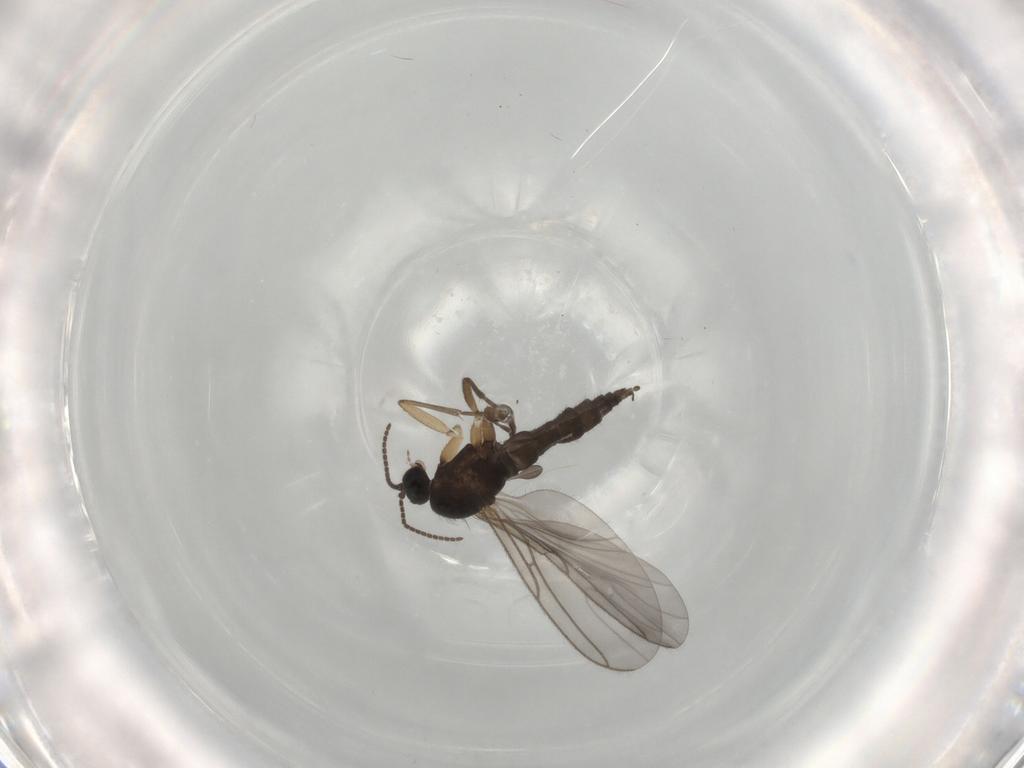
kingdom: Animalia
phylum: Arthropoda
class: Insecta
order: Diptera
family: Sciaridae
